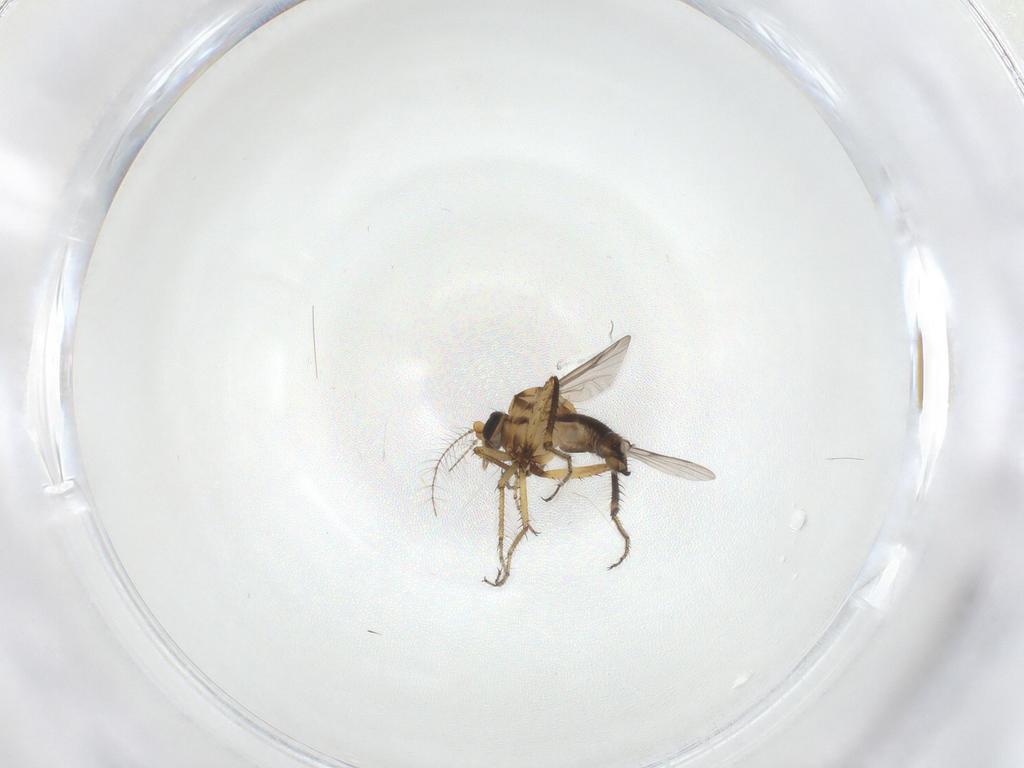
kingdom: Animalia
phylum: Arthropoda
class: Insecta
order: Diptera
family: Ceratopogonidae
